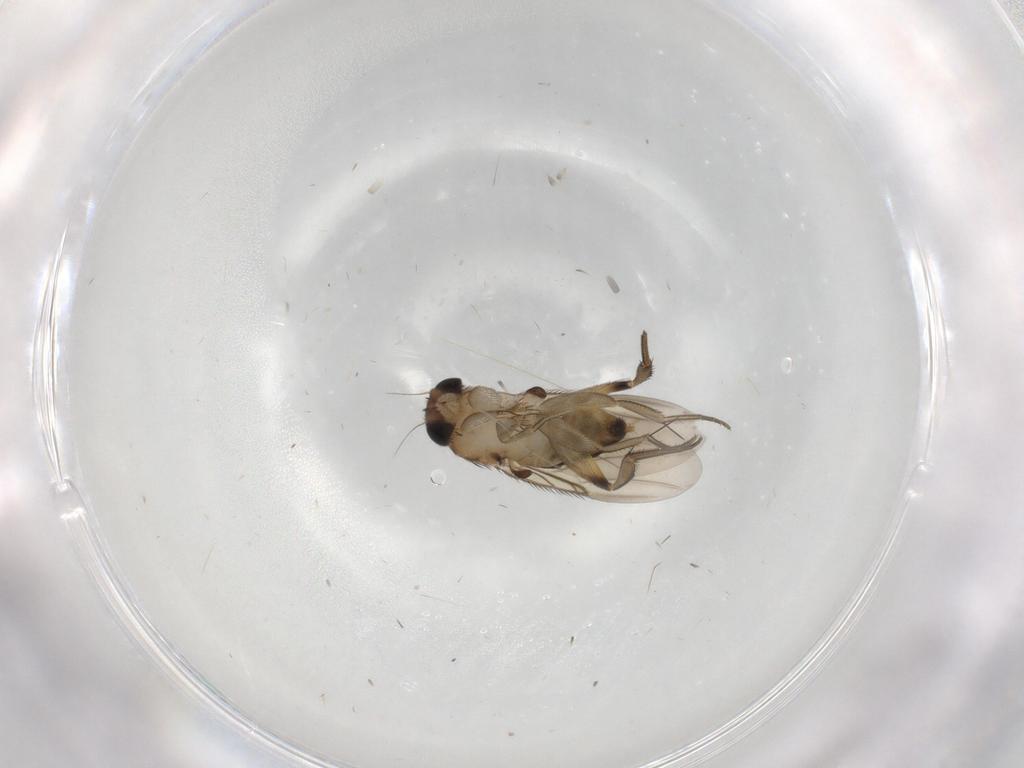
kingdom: Animalia
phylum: Arthropoda
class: Insecta
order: Diptera
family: Phoridae
